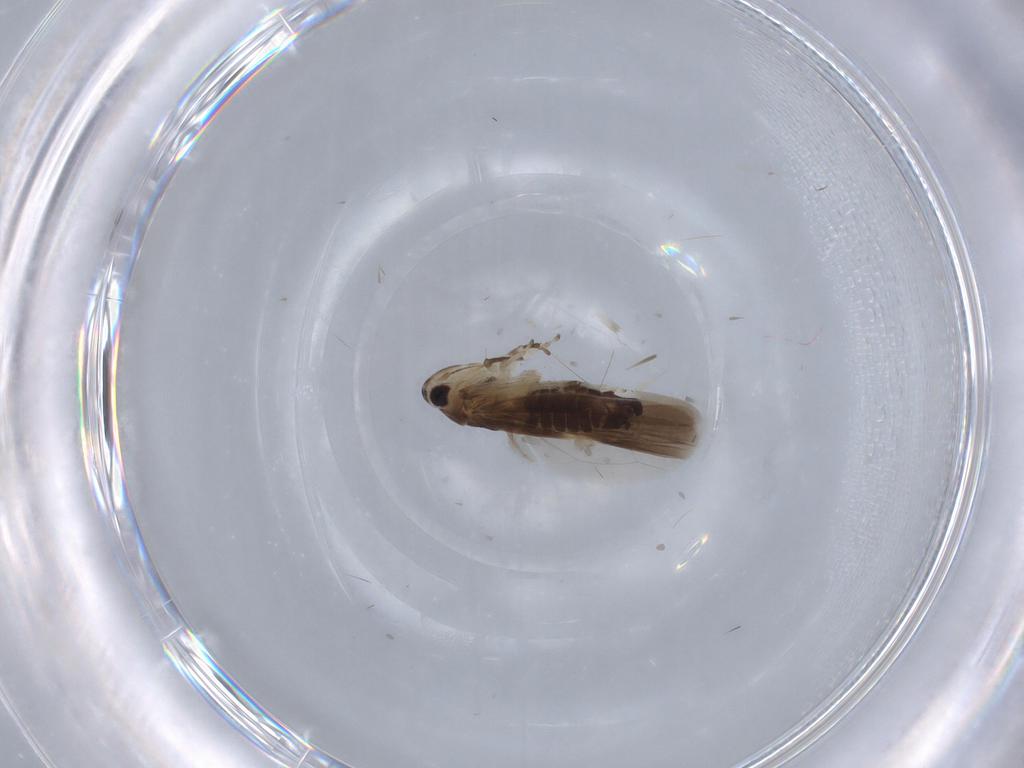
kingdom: Animalia
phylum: Arthropoda
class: Insecta
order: Hemiptera
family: Cicadellidae
